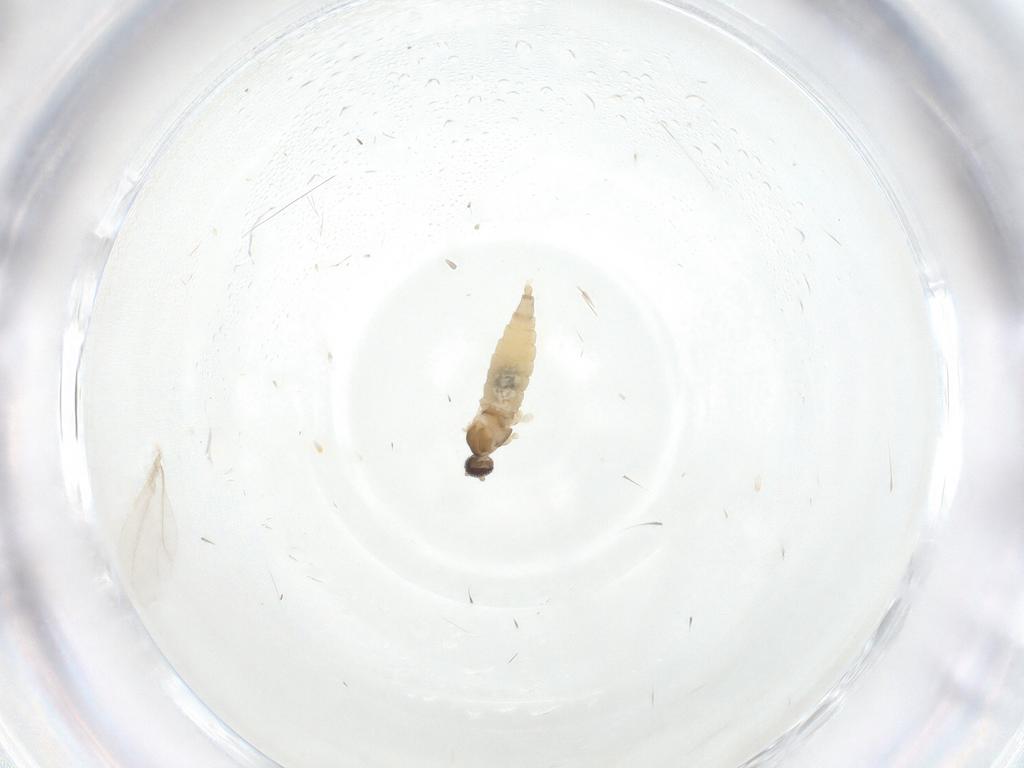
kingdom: Animalia
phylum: Arthropoda
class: Insecta
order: Diptera
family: Cecidomyiidae
